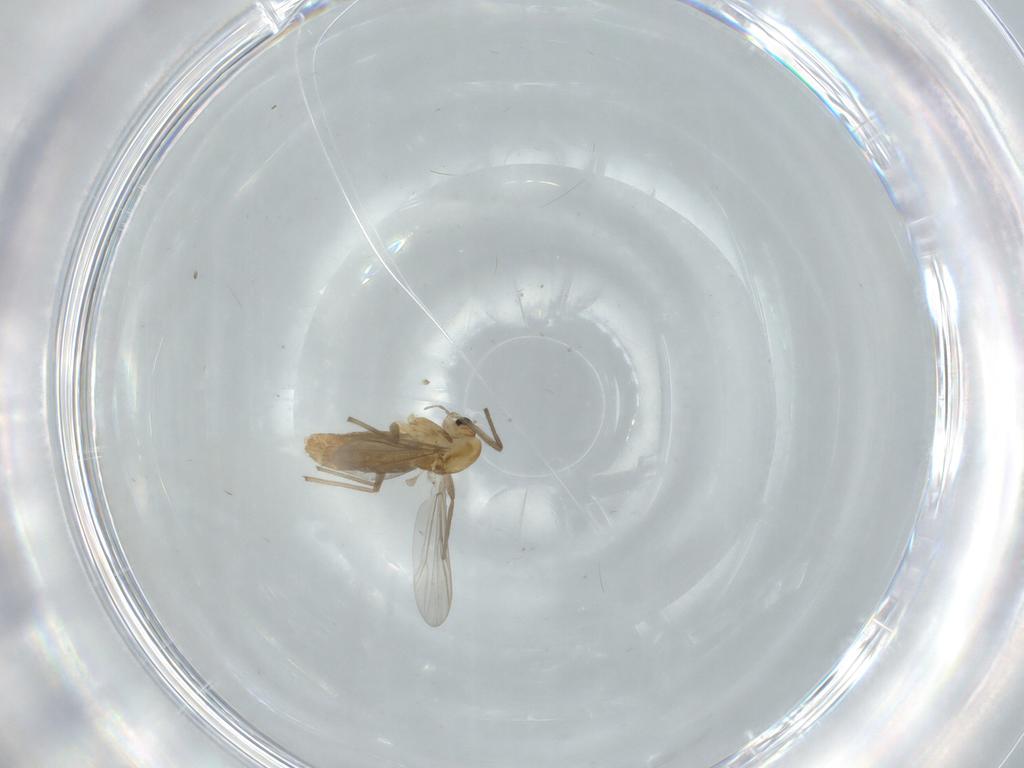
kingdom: Animalia
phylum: Arthropoda
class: Insecta
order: Diptera
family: Chironomidae
